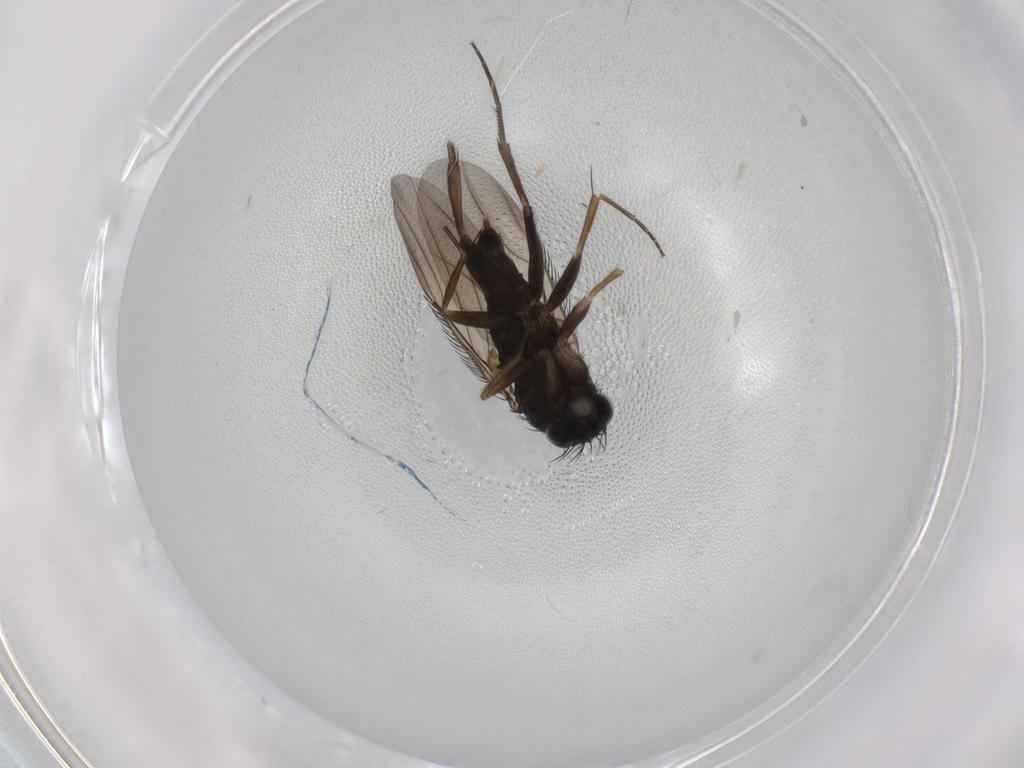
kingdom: Animalia
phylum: Arthropoda
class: Insecta
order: Diptera
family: Phoridae
